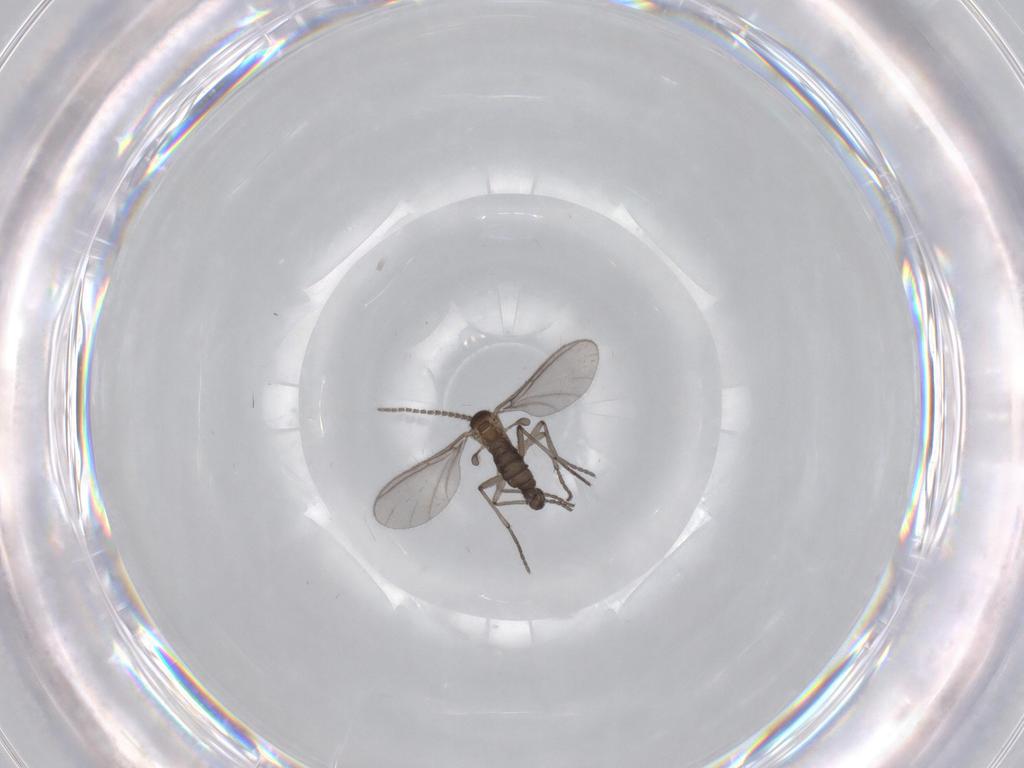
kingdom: Animalia
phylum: Arthropoda
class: Insecta
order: Diptera
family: Sciaridae
